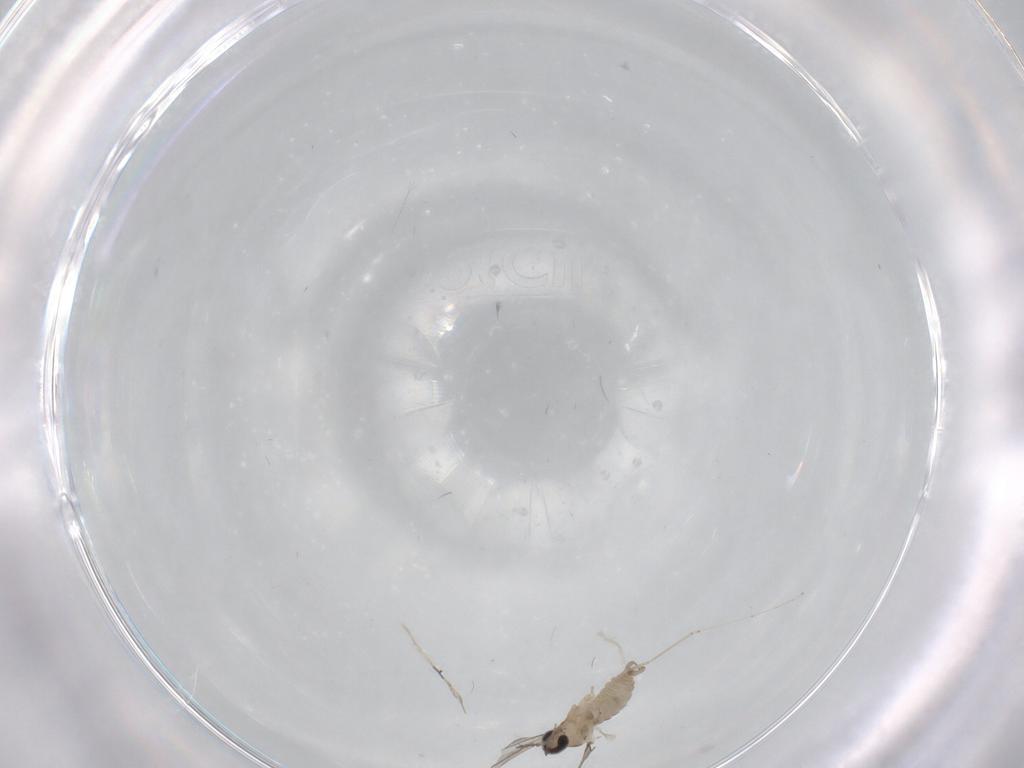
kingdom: Animalia
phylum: Arthropoda
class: Insecta
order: Diptera
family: Cecidomyiidae
